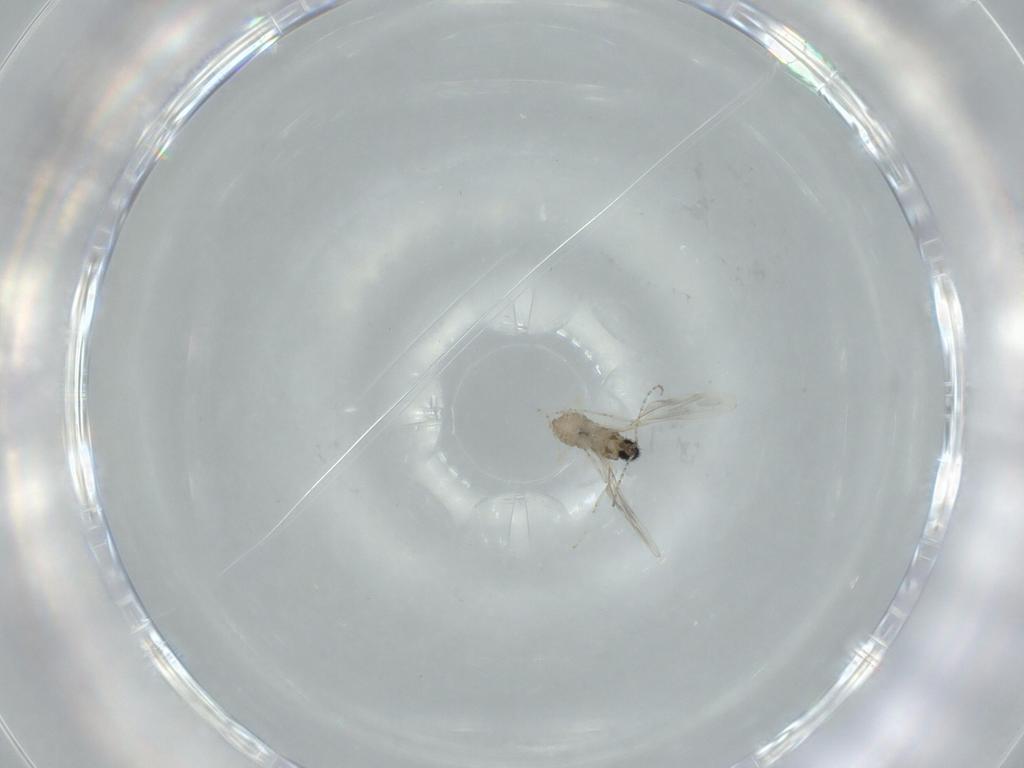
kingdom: Animalia
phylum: Arthropoda
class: Insecta
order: Diptera
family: Cecidomyiidae
